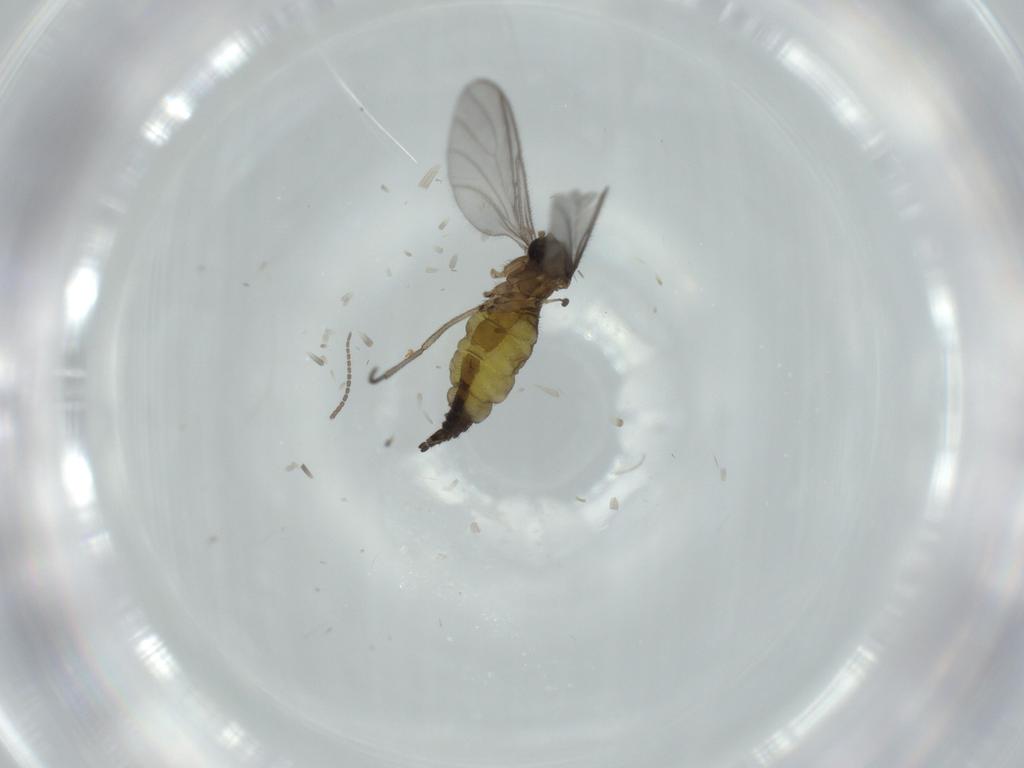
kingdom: Animalia
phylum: Arthropoda
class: Insecta
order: Diptera
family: Sciaridae
